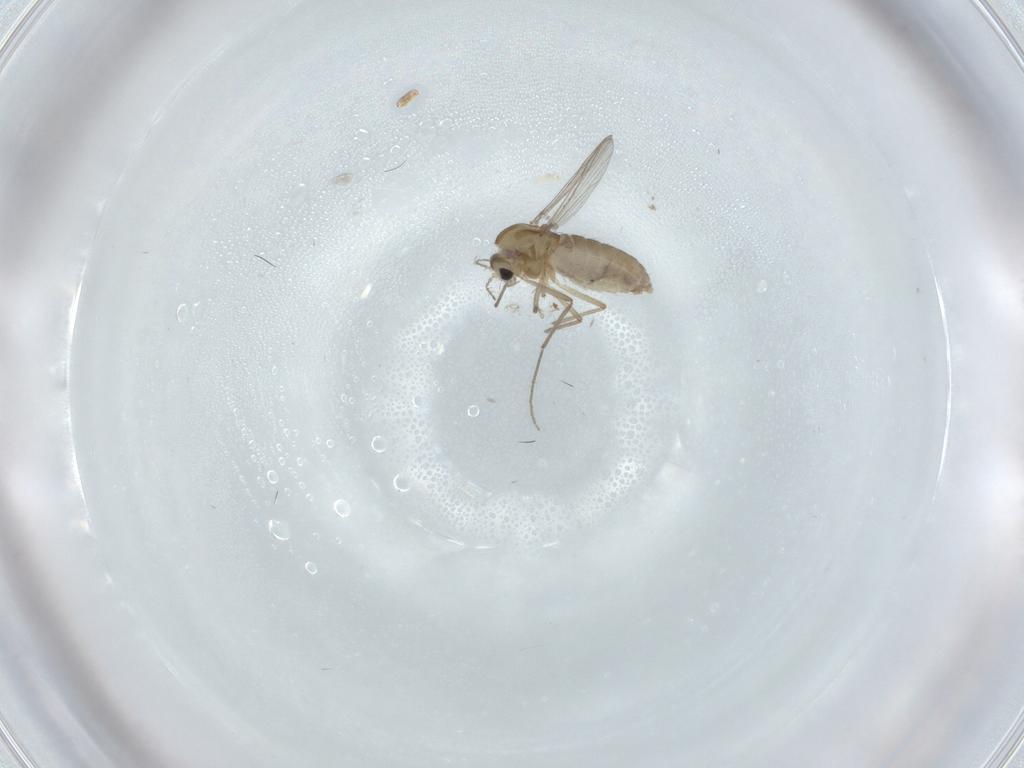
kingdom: Animalia
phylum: Arthropoda
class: Insecta
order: Diptera
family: Chironomidae
